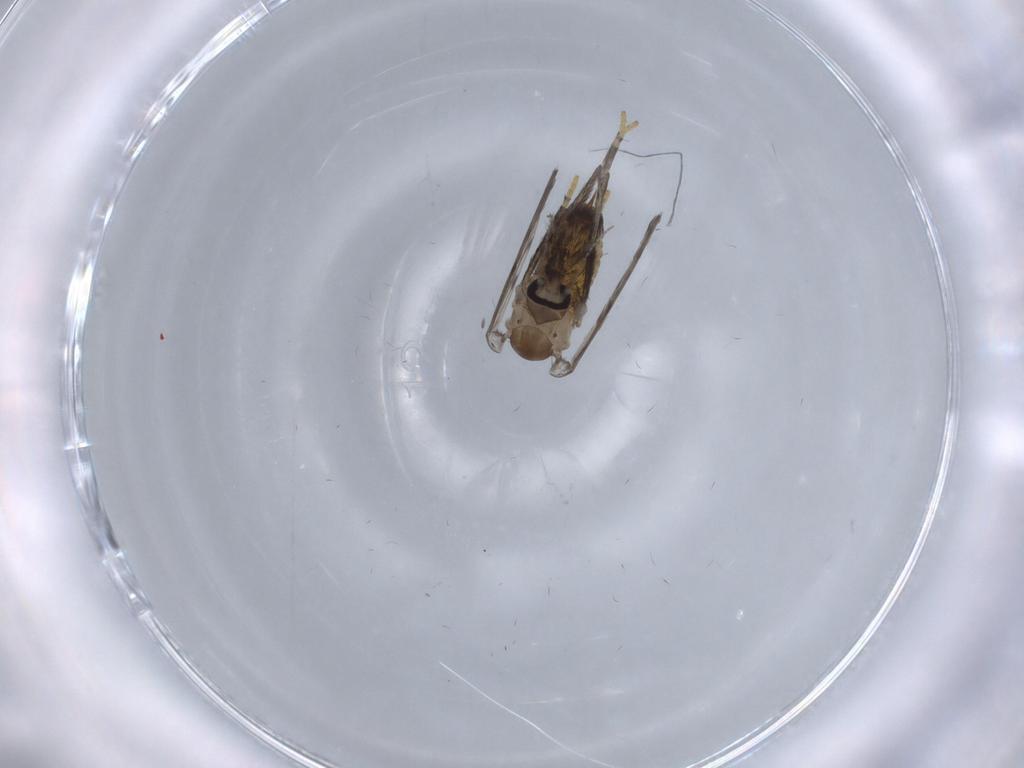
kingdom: Animalia
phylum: Arthropoda
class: Insecta
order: Diptera
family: Psychodidae
